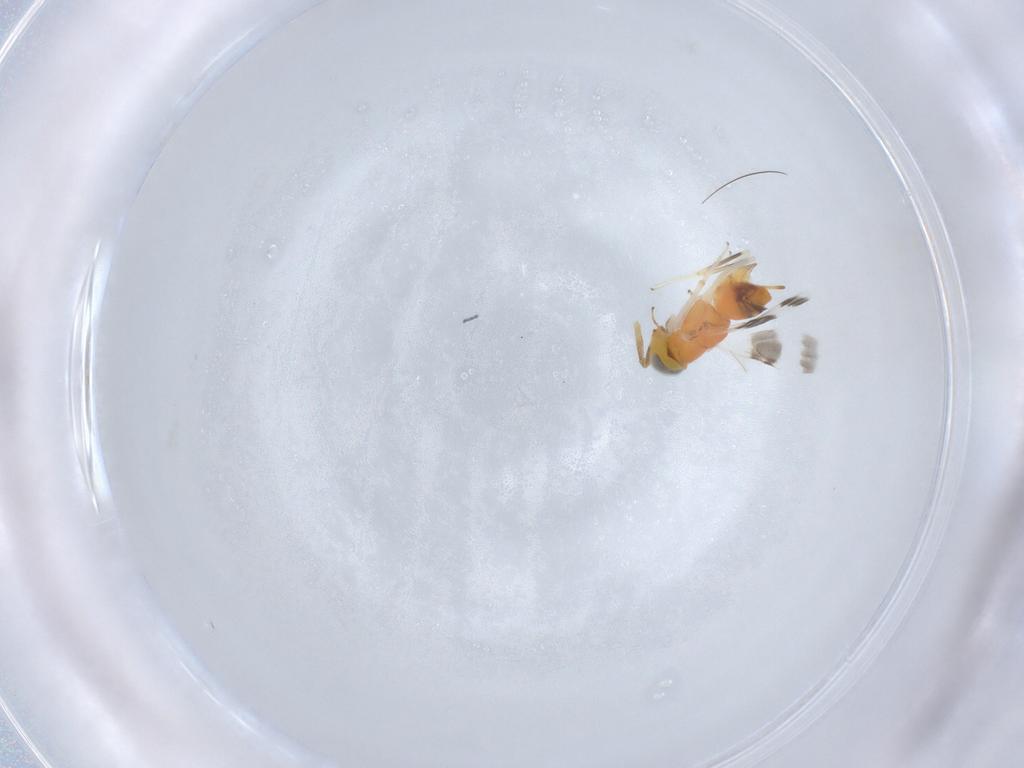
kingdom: Animalia
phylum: Arthropoda
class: Insecta
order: Hymenoptera
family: Encyrtidae
